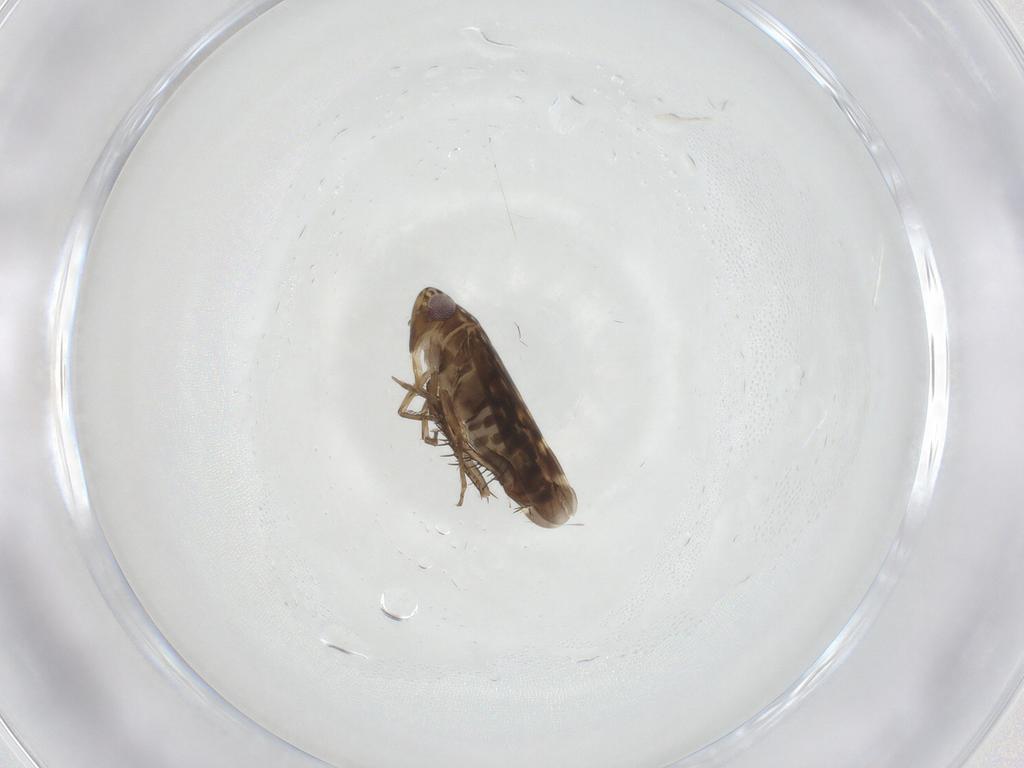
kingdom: Animalia
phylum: Arthropoda
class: Insecta
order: Hemiptera
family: Cicadellidae
